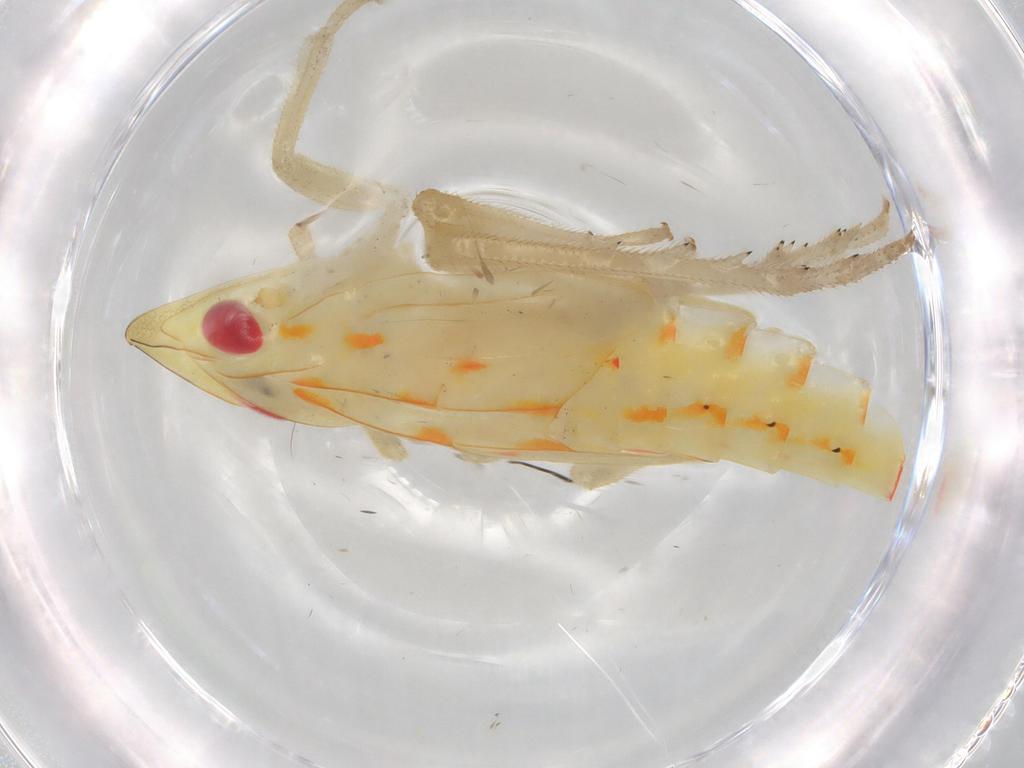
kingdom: Animalia
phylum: Arthropoda
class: Insecta
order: Hemiptera
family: Tropiduchidae
